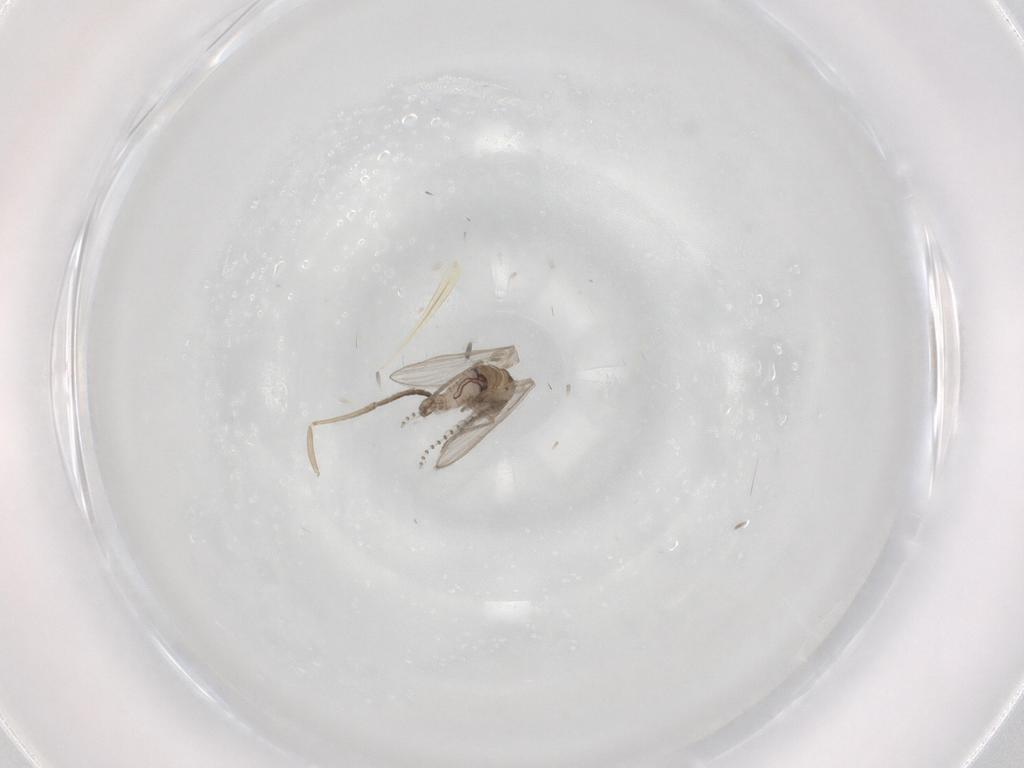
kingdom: Animalia
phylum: Arthropoda
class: Insecta
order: Diptera
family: Psychodidae
